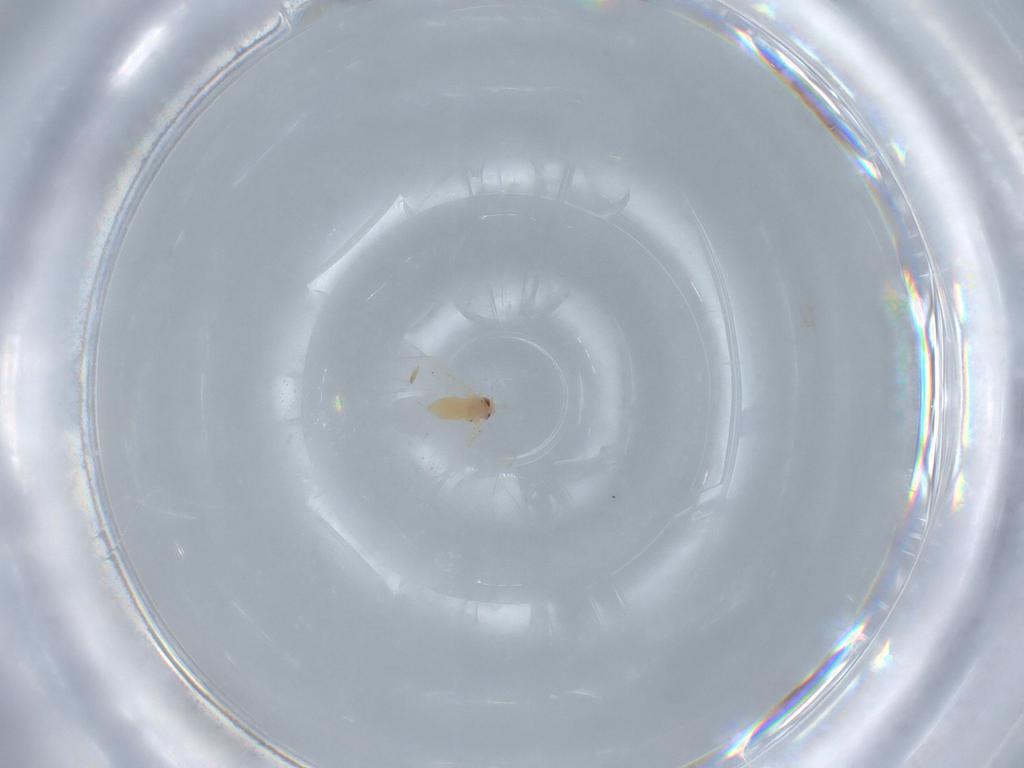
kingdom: Animalia
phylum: Arthropoda
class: Insecta
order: Hemiptera
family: Aleyrodidae
